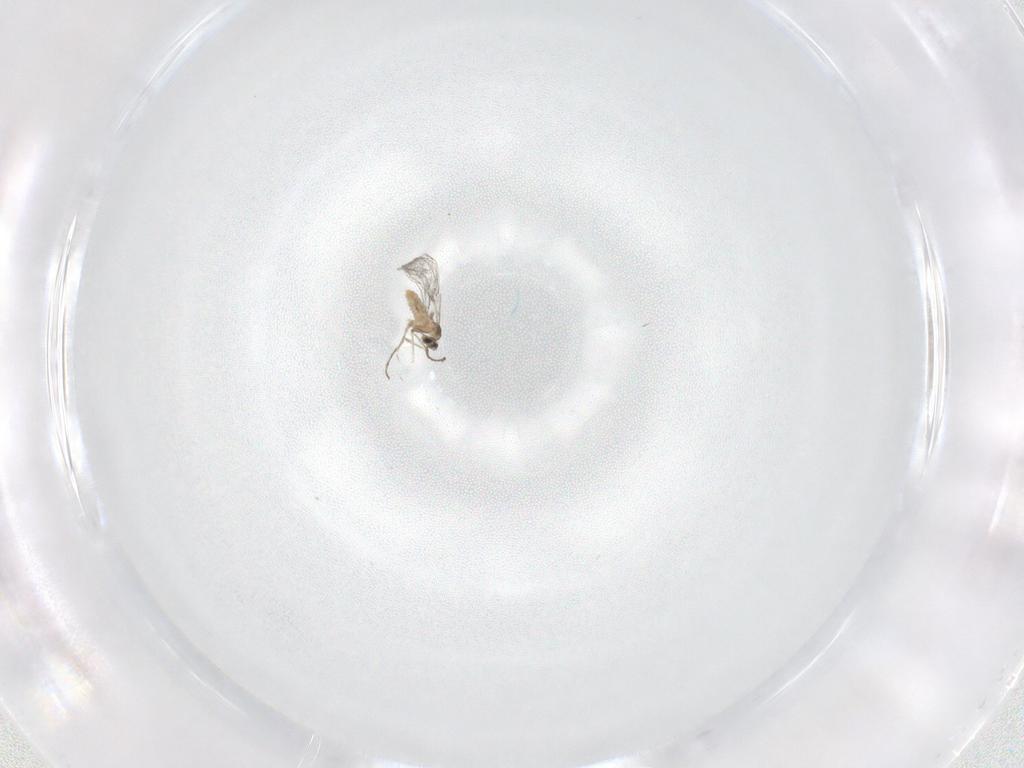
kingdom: Animalia
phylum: Arthropoda
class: Insecta
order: Diptera
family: Cecidomyiidae
